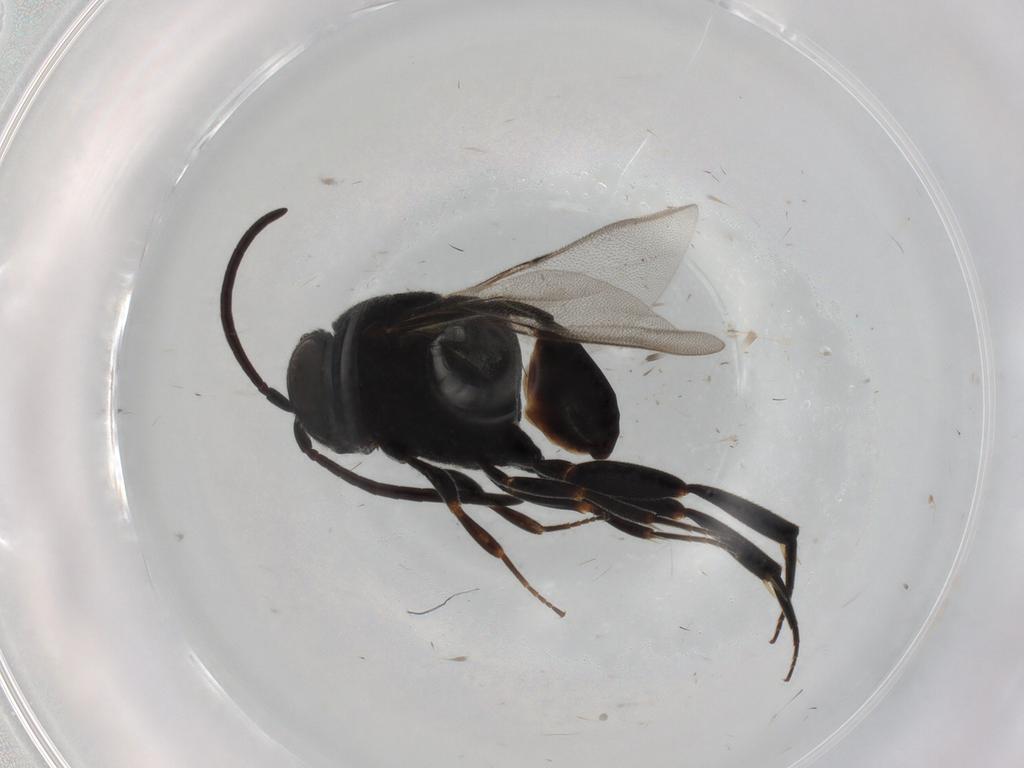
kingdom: Animalia
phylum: Arthropoda
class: Insecta
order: Hymenoptera
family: Evaniidae
